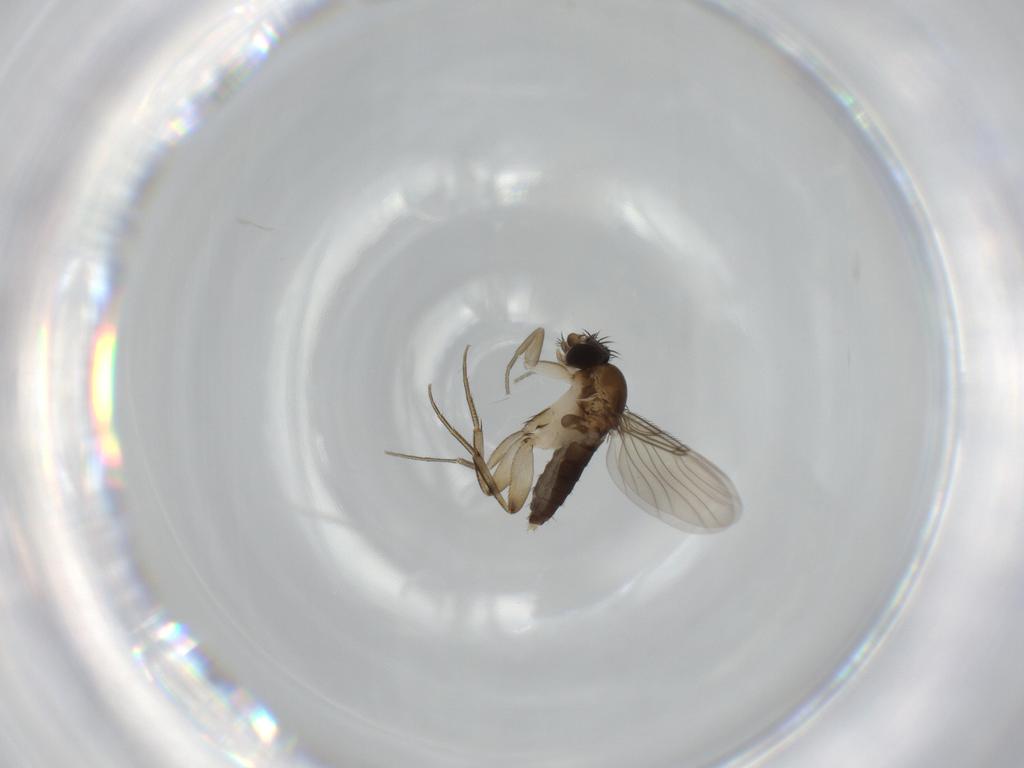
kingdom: Animalia
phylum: Arthropoda
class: Insecta
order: Diptera
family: Phoridae
